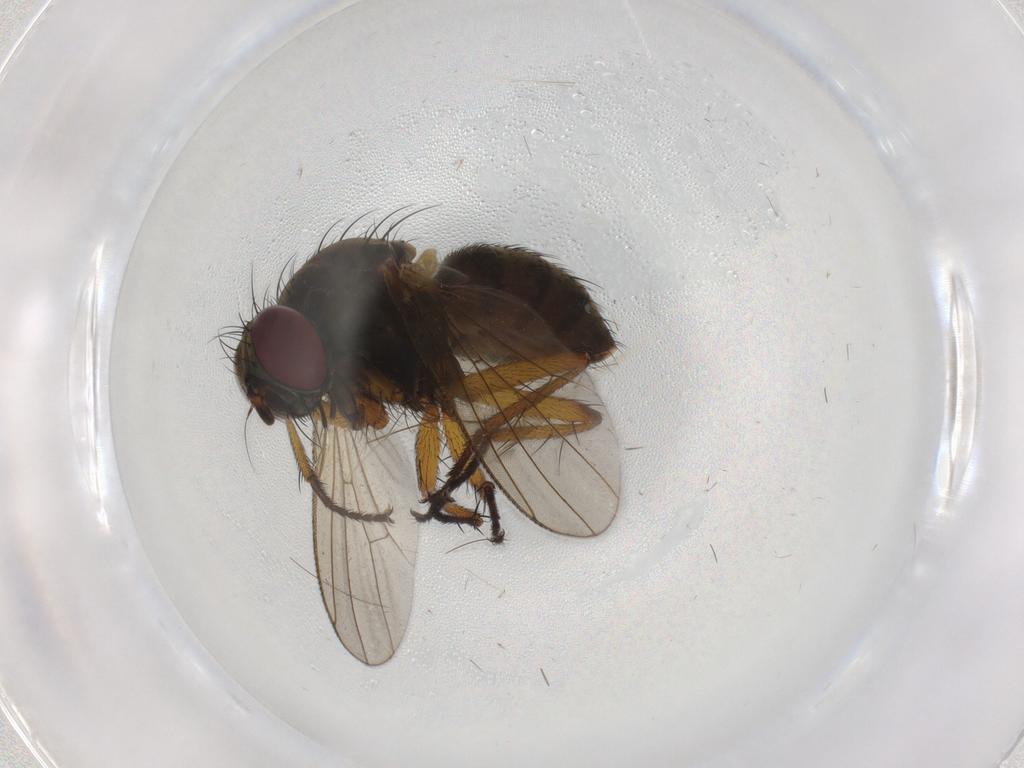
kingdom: Animalia
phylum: Arthropoda
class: Insecta
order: Diptera
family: Muscidae
